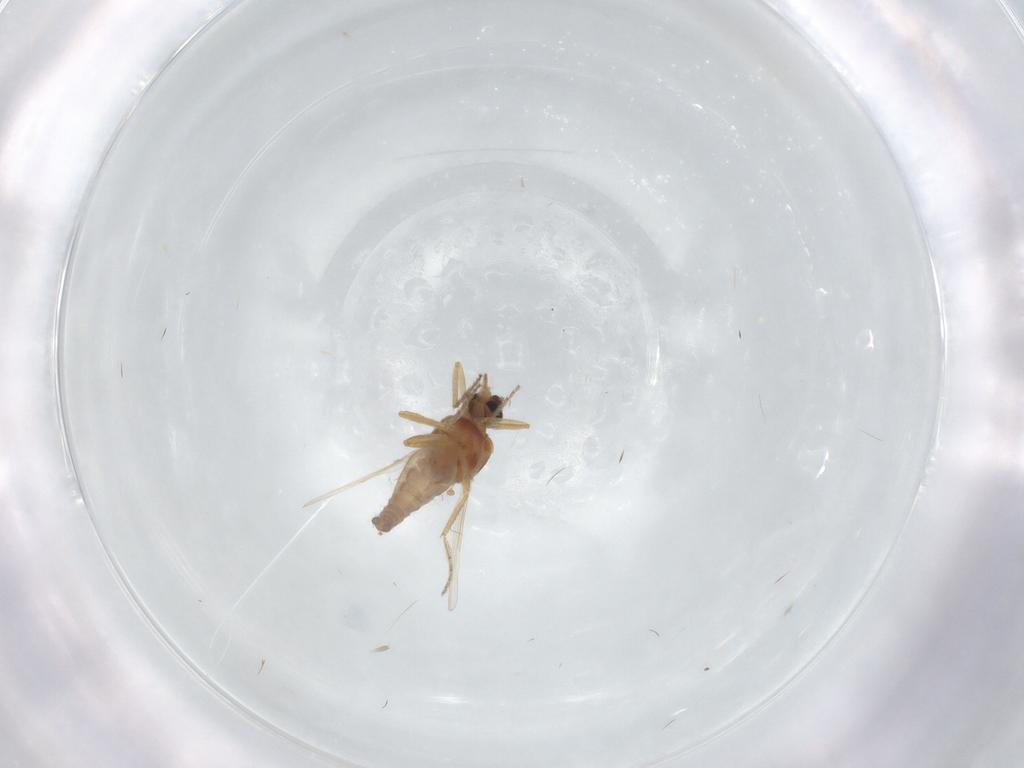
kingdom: Animalia
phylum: Arthropoda
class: Insecta
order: Diptera
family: Ceratopogonidae
